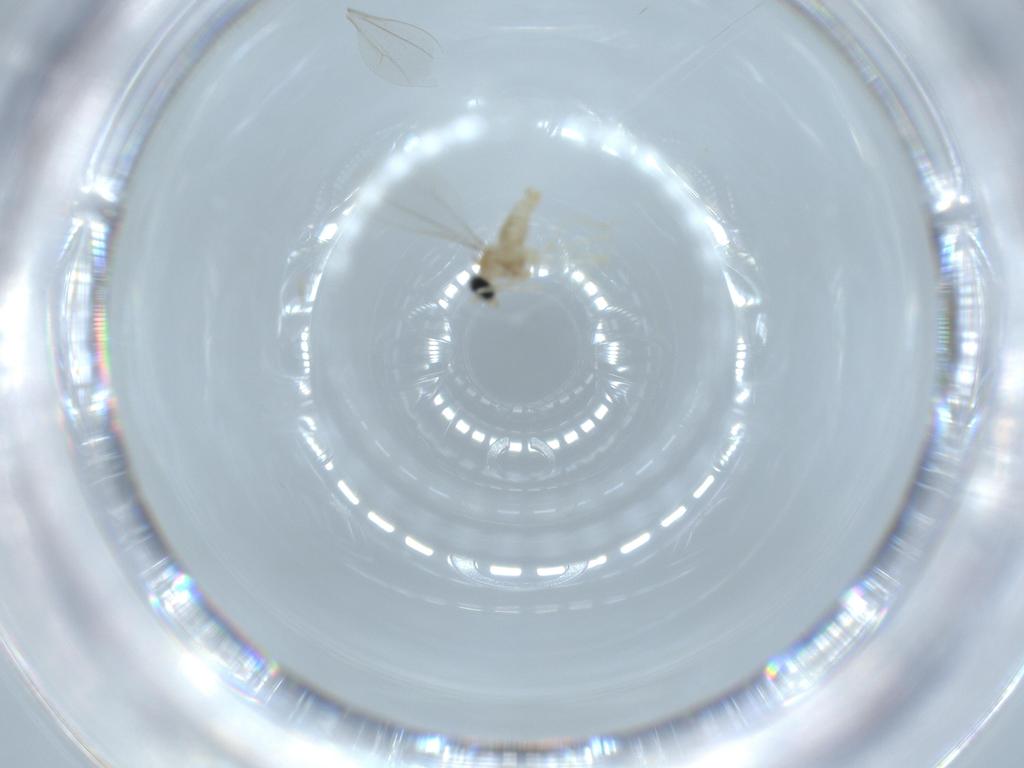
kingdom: Animalia
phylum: Arthropoda
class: Insecta
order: Diptera
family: Cecidomyiidae
